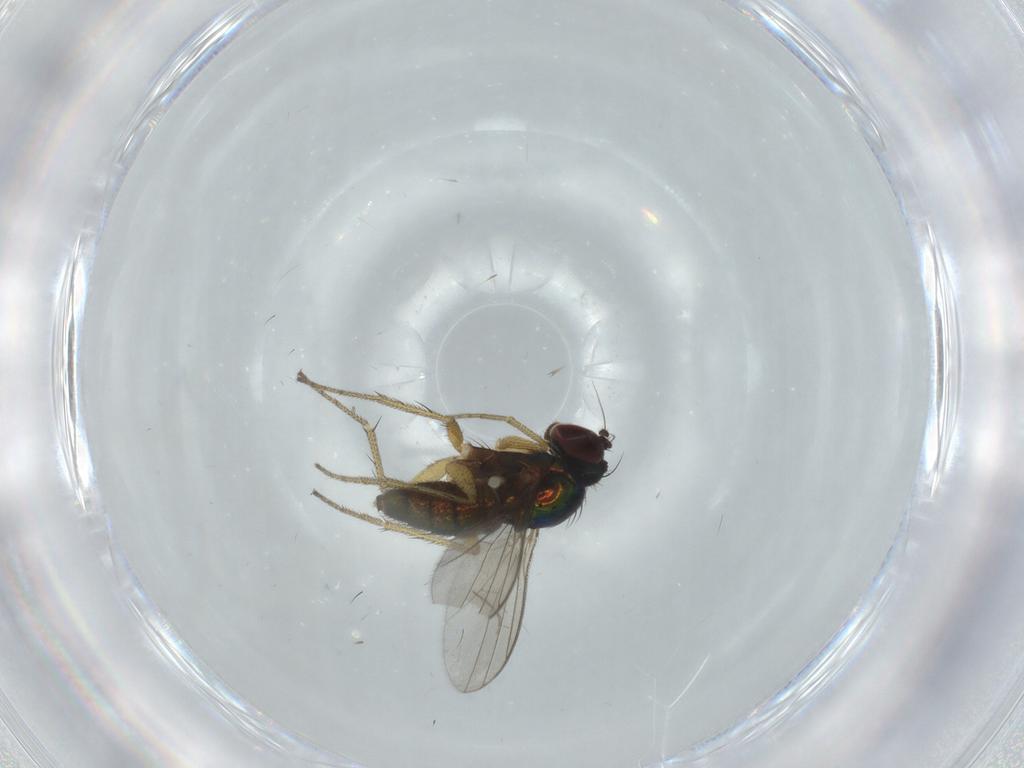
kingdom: Animalia
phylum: Arthropoda
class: Insecta
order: Diptera
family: Dolichopodidae
